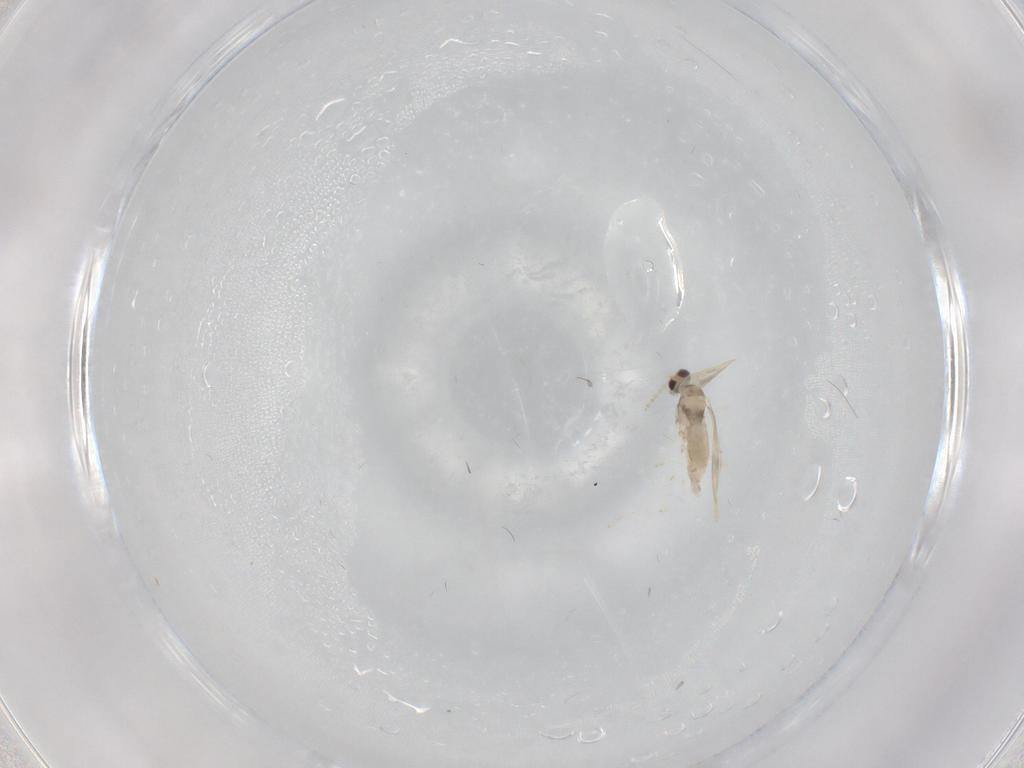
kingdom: Animalia
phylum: Arthropoda
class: Insecta
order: Diptera
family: Cecidomyiidae
